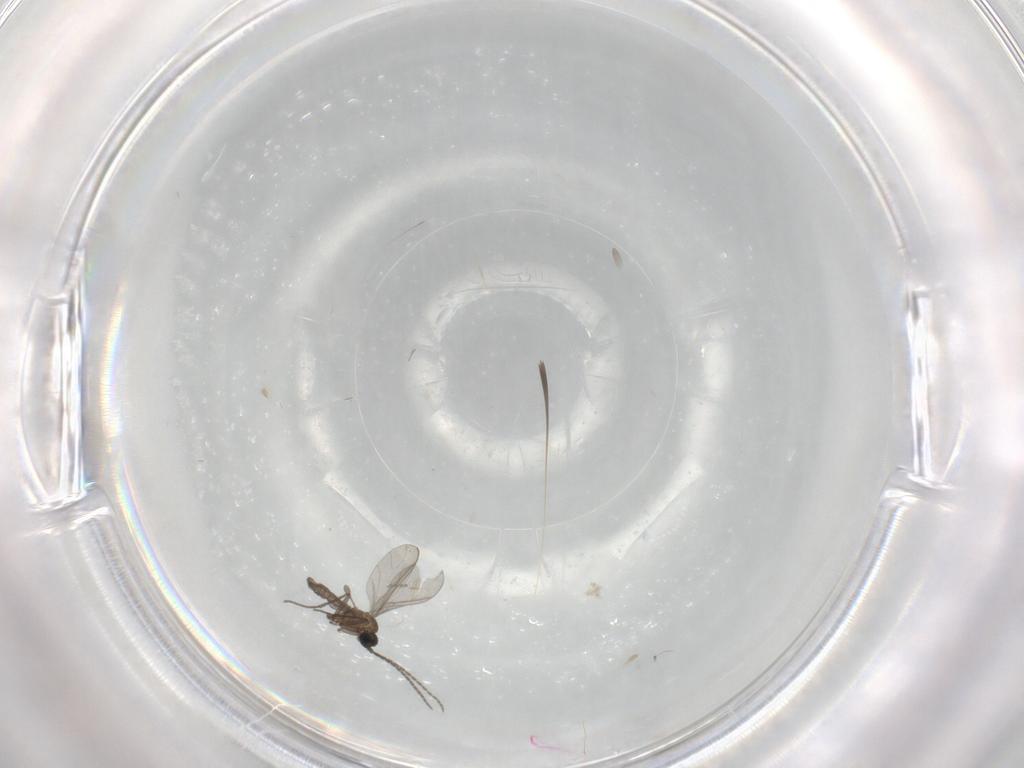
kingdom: Animalia
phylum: Arthropoda
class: Insecta
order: Diptera
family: Sciaridae
